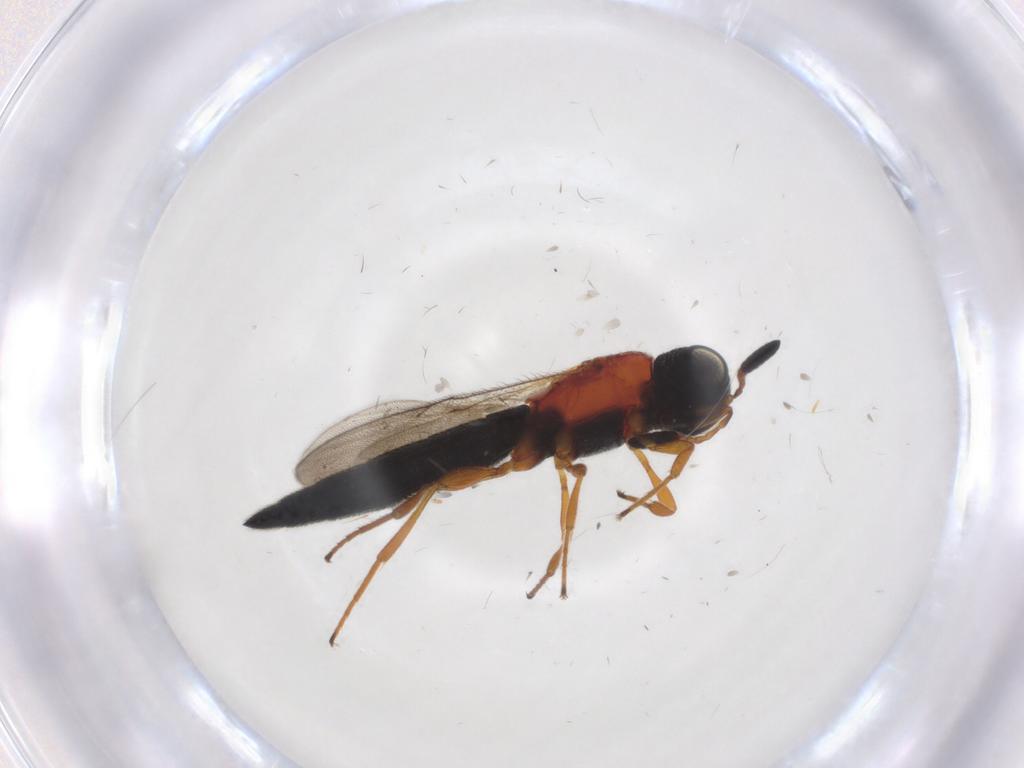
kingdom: Animalia
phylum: Arthropoda
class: Insecta
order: Hymenoptera
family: Scelionidae
